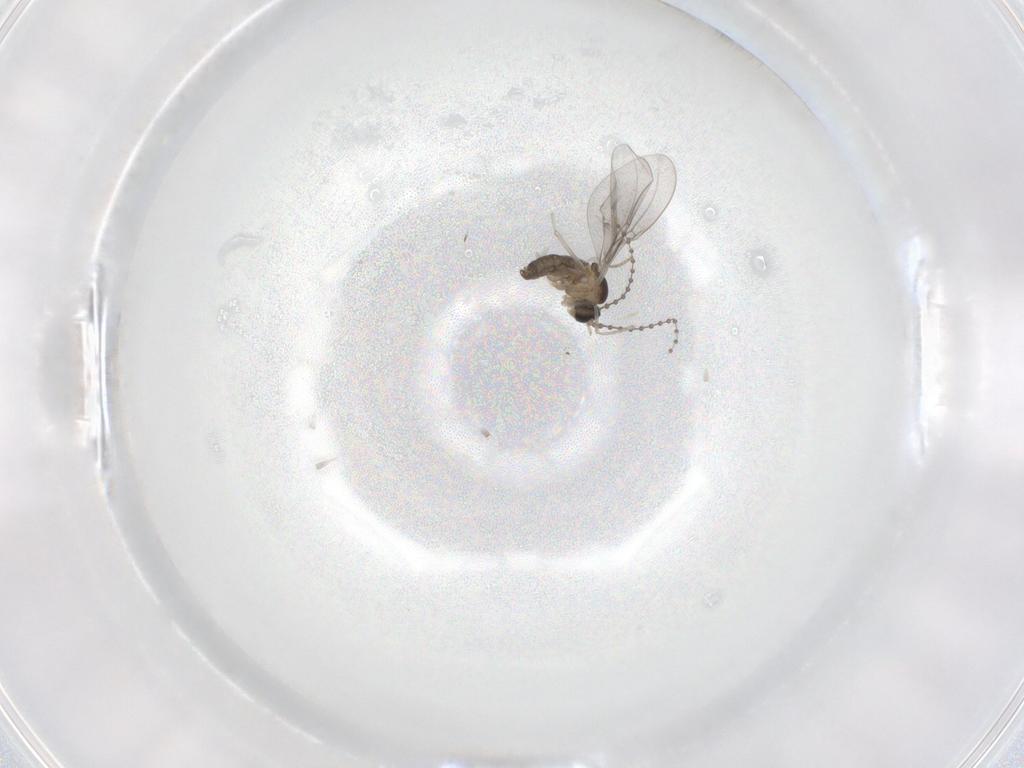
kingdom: Animalia
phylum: Arthropoda
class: Insecta
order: Diptera
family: Cecidomyiidae
